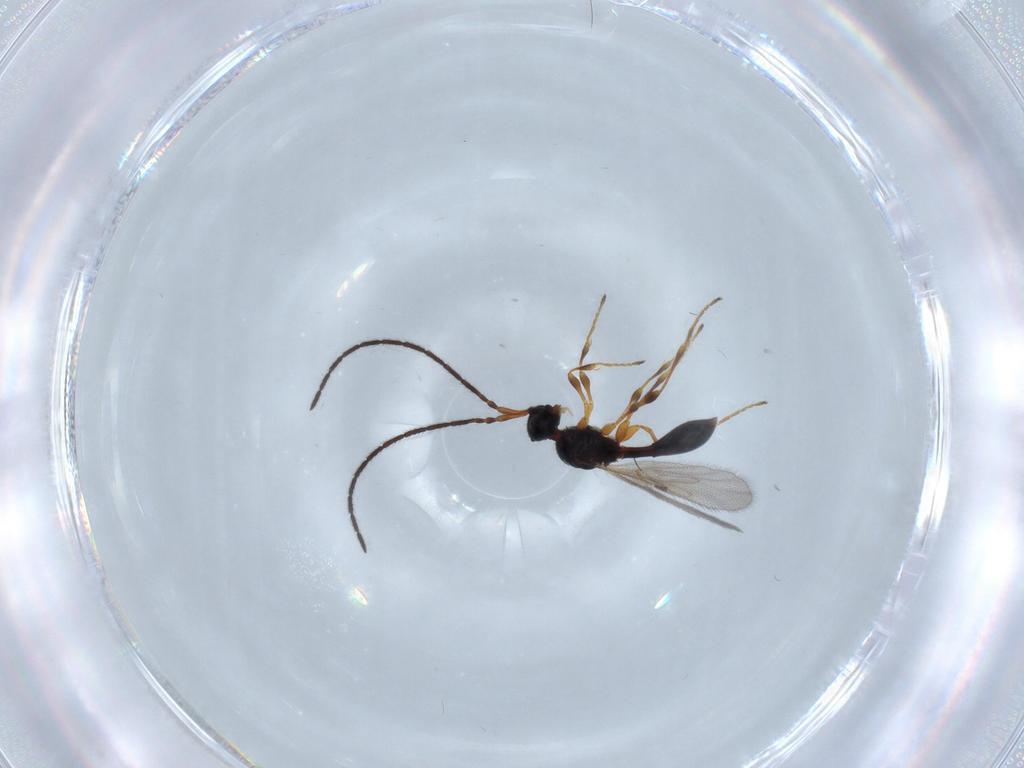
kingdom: Animalia
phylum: Arthropoda
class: Insecta
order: Hymenoptera
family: Diapriidae
